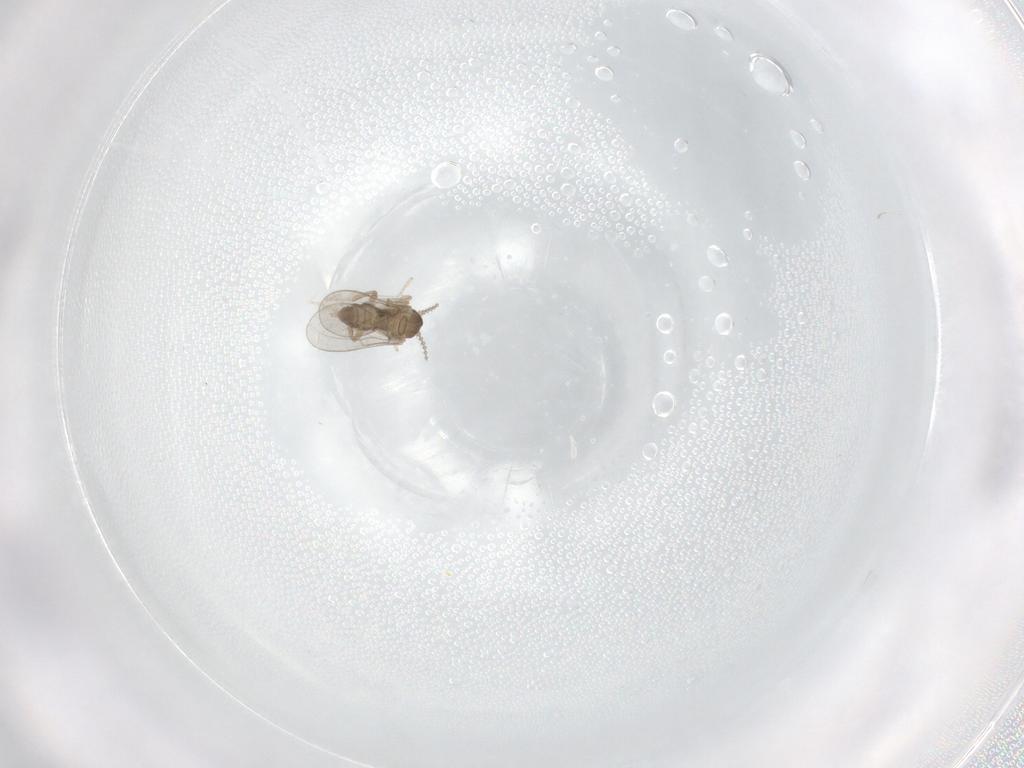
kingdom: Animalia
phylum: Arthropoda
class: Insecta
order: Diptera
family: Cecidomyiidae
